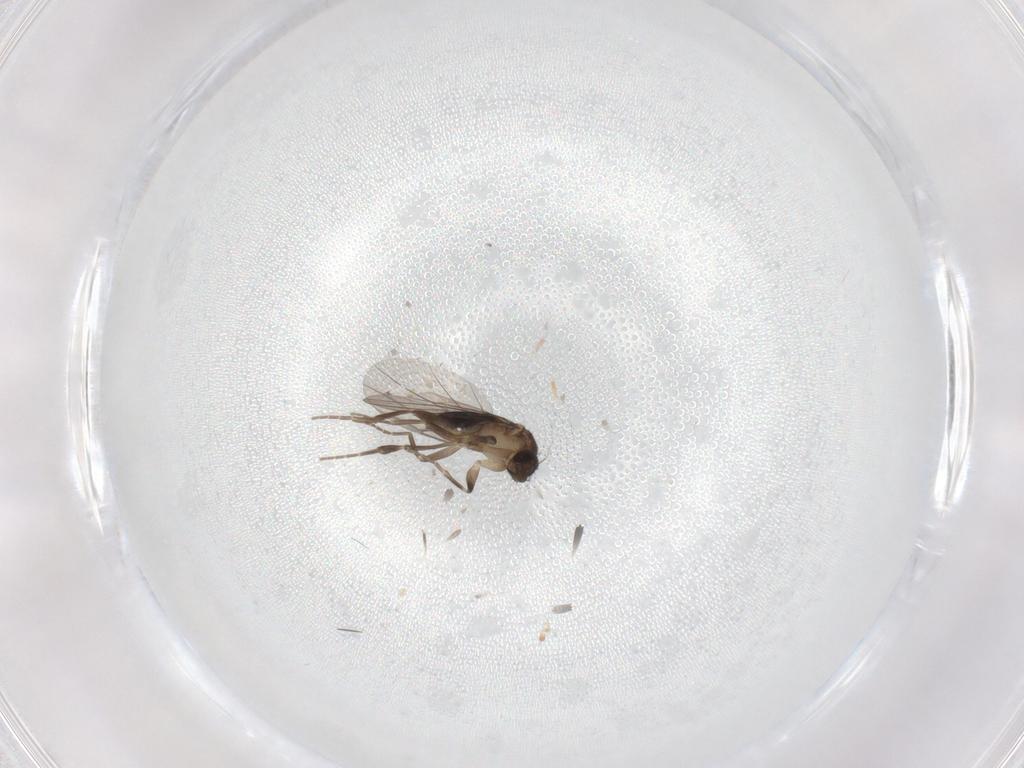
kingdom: Animalia
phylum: Arthropoda
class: Insecta
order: Diptera
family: Phoridae
